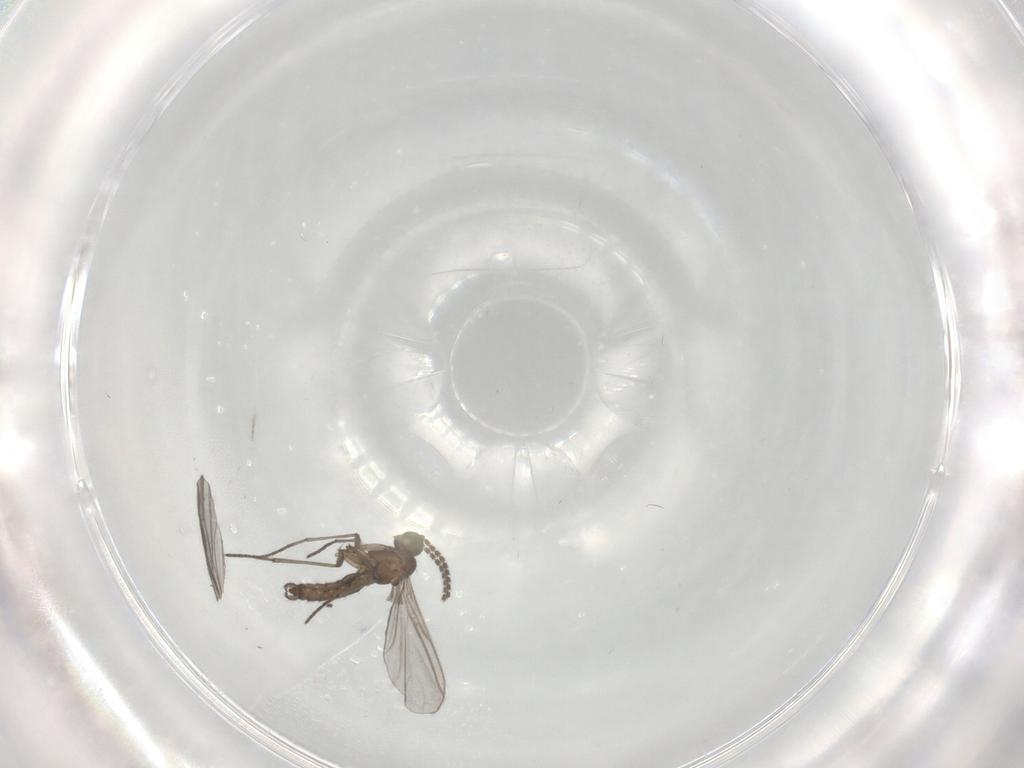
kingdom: Animalia
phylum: Arthropoda
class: Insecta
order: Diptera
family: Sciaridae
